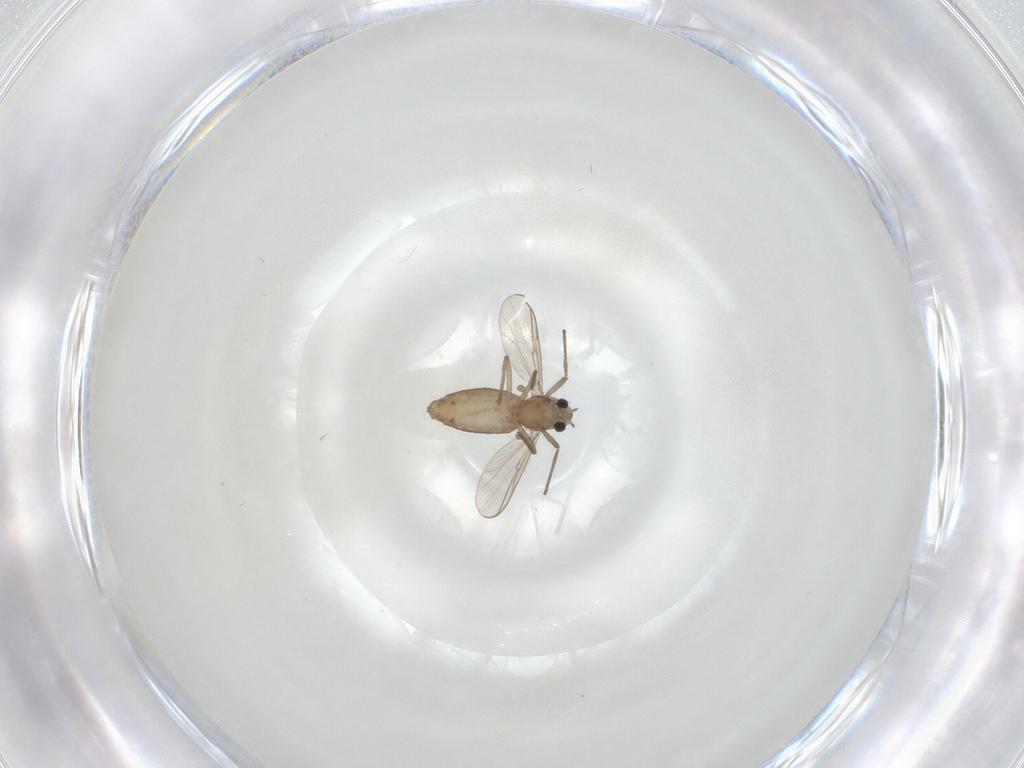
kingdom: Animalia
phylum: Arthropoda
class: Insecta
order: Diptera
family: Chironomidae
